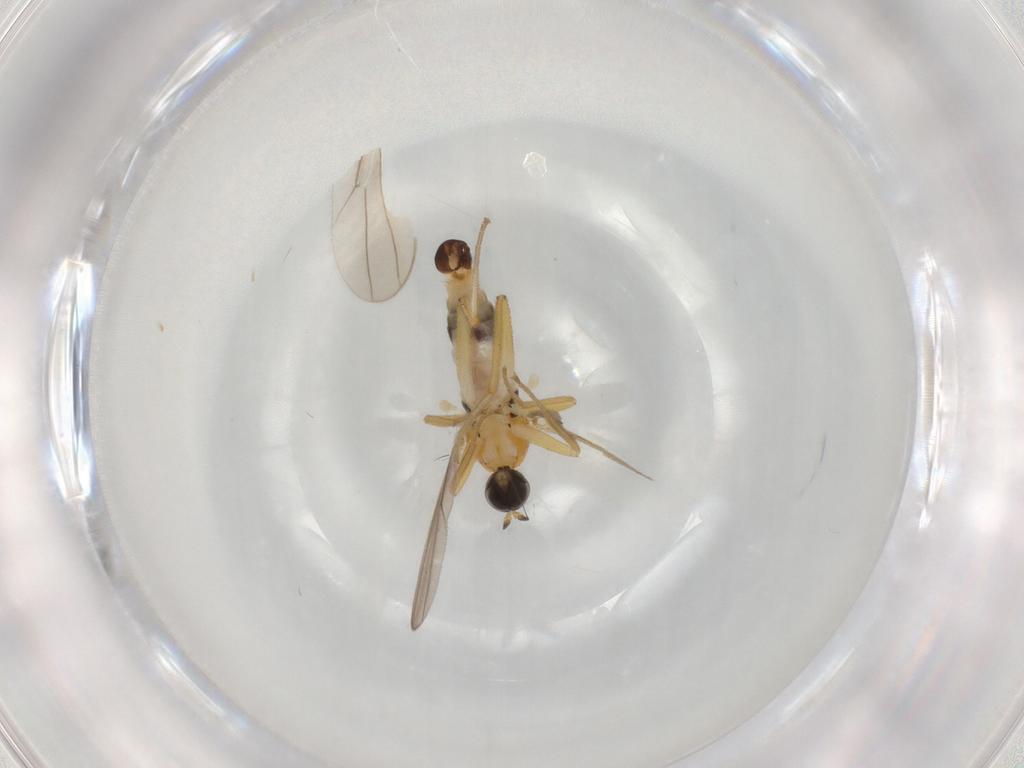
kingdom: Animalia
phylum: Arthropoda
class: Insecta
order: Diptera
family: Hybotidae
